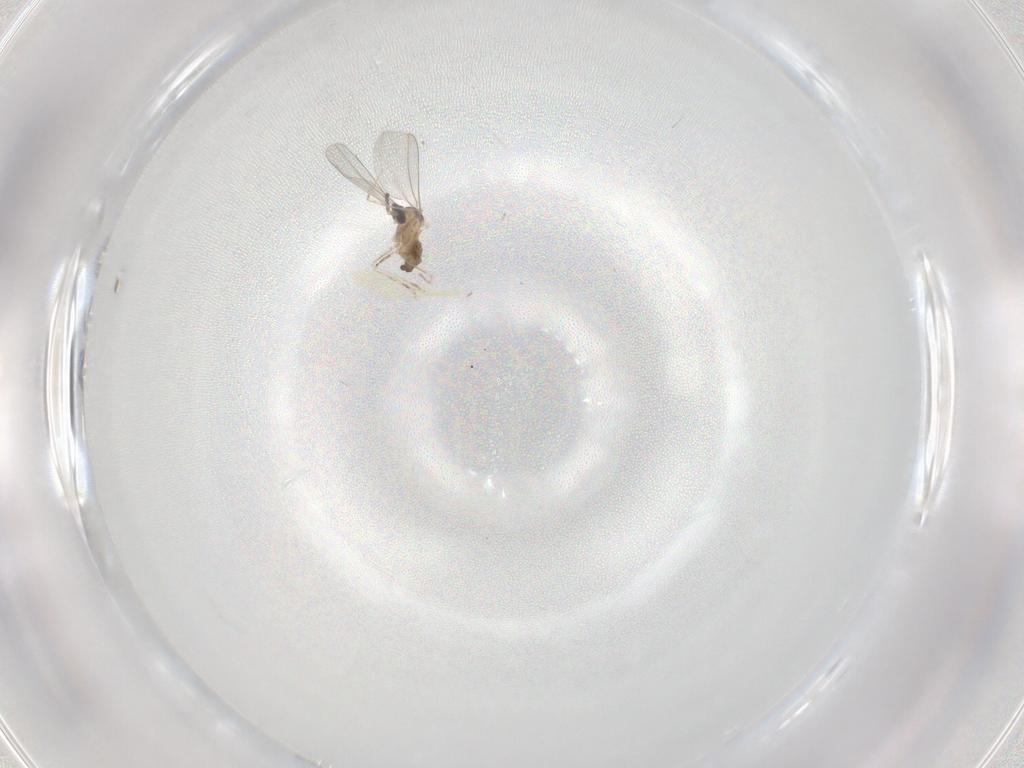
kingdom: Animalia
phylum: Arthropoda
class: Insecta
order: Diptera
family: Cecidomyiidae
